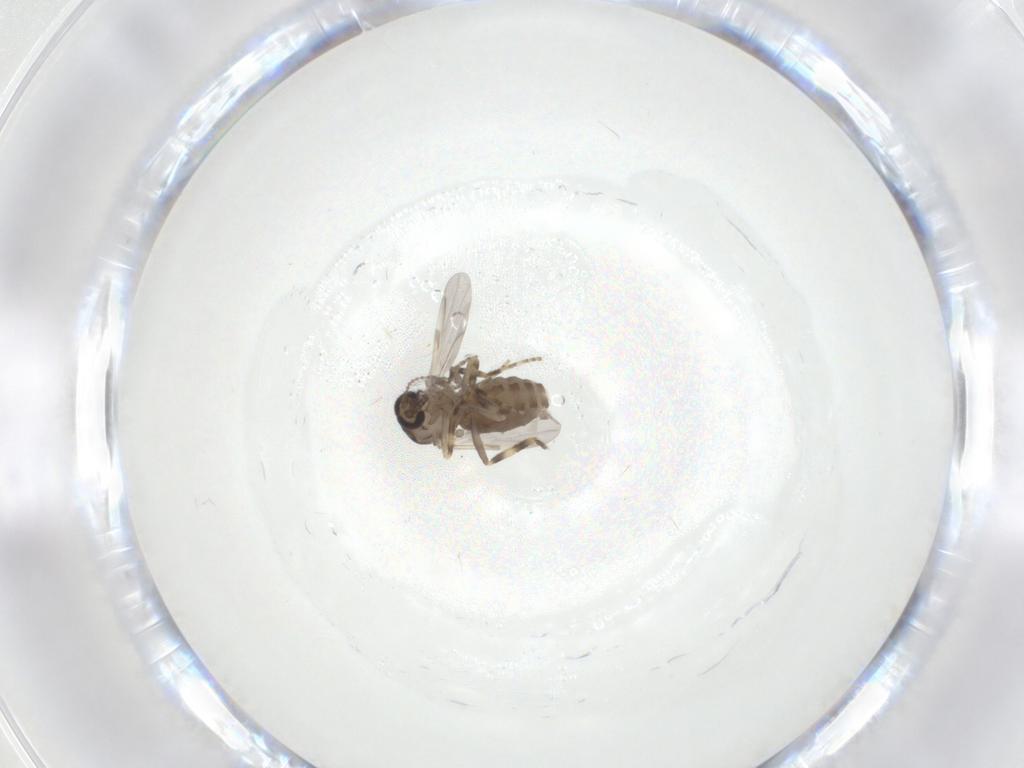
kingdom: Animalia
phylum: Arthropoda
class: Insecta
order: Diptera
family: Ceratopogonidae
